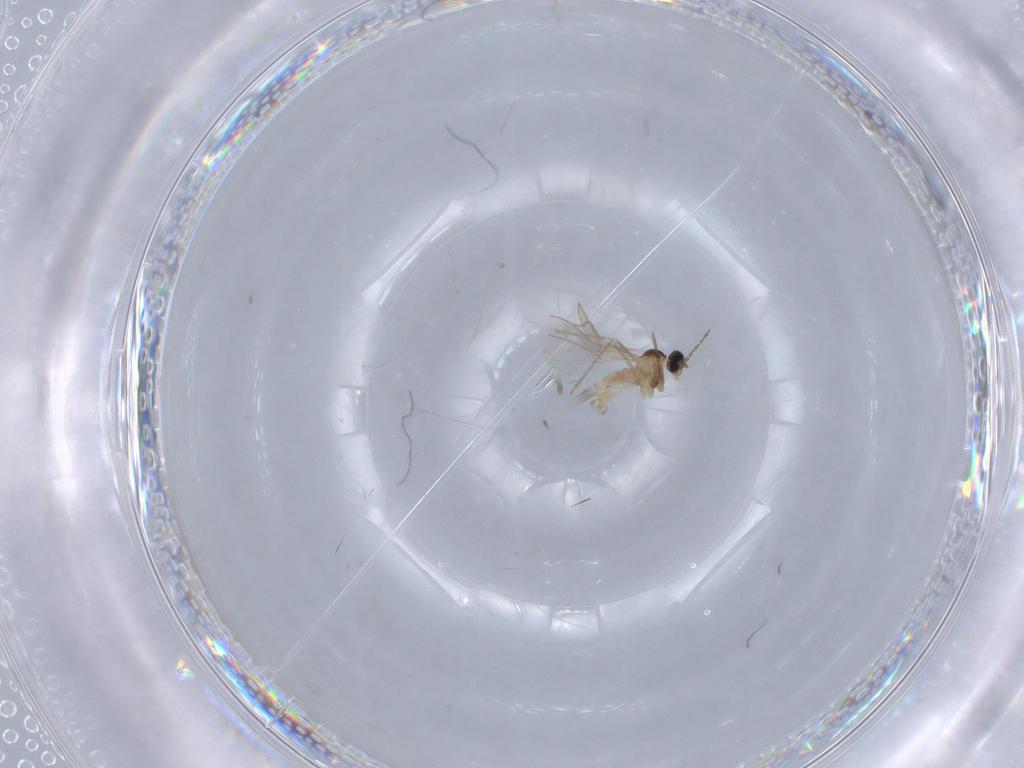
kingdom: Animalia
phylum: Arthropoda
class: Insecta
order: Diptera
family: Cecidomyiidae
